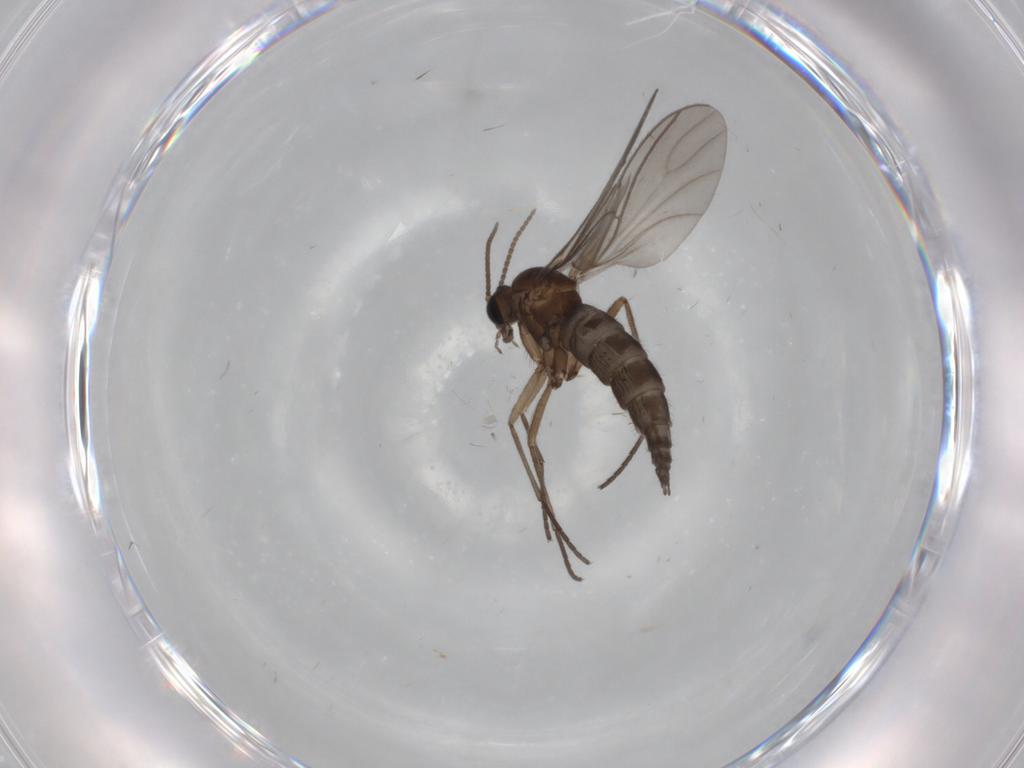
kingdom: Animalia
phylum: Arthropoda
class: Insecta
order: Diptera
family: Sciaridae
